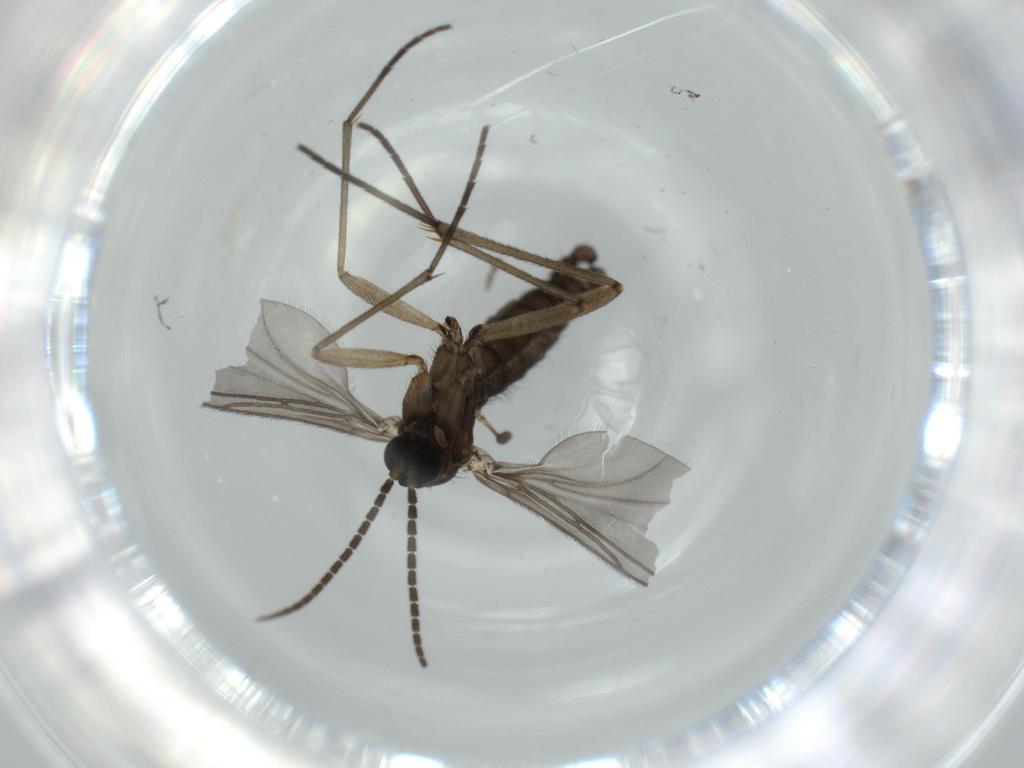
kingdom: Animalia
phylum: Arthropoda
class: Insecta
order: Diptera
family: Sciaridae
